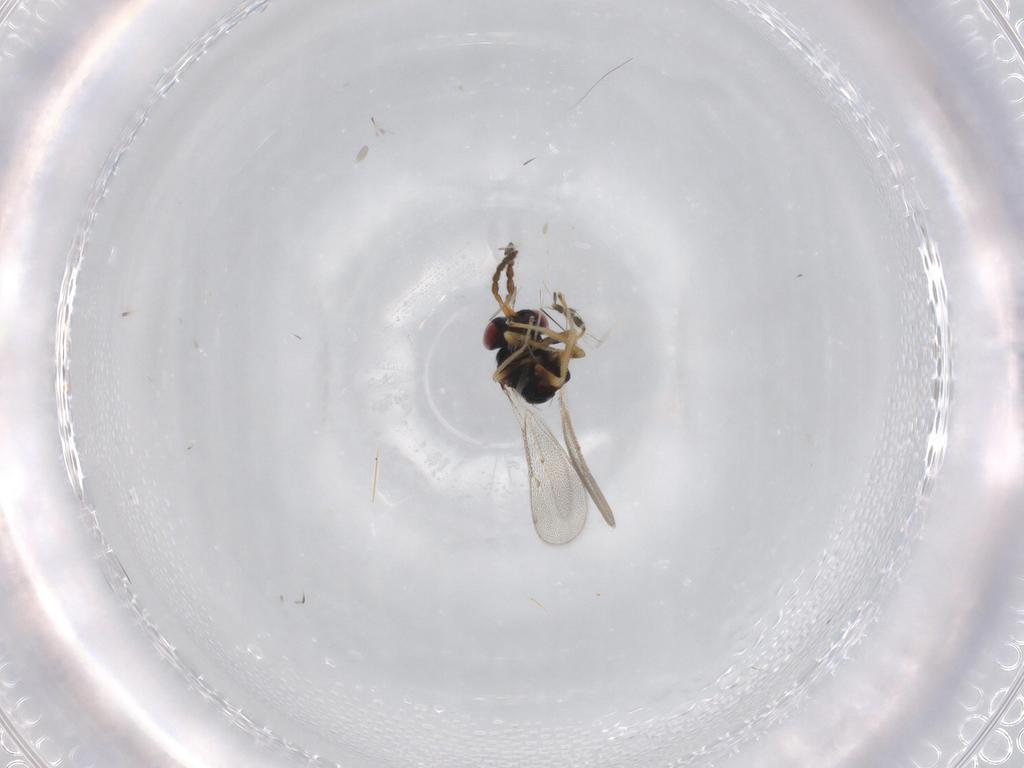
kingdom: Animalia
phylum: Arthropoda
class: Insecta
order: Diptera
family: Sciaridae
